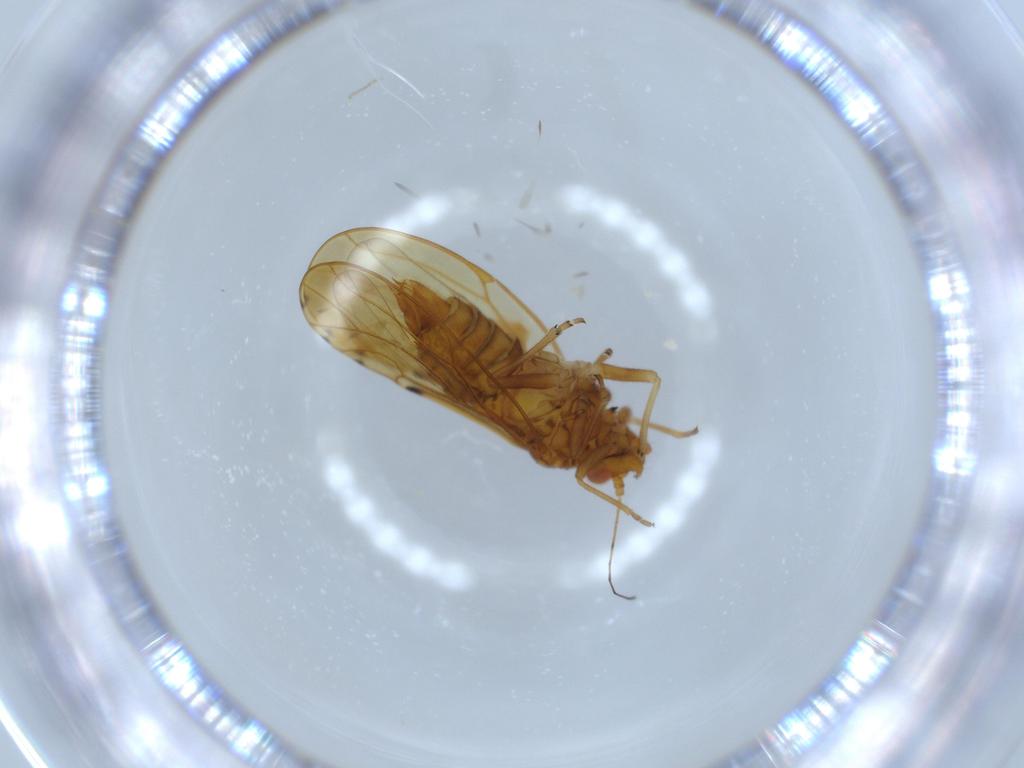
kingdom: Animalia
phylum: Arthropoda
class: Insecta
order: Hemiptera
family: Psylloidea_incertae_sedis
